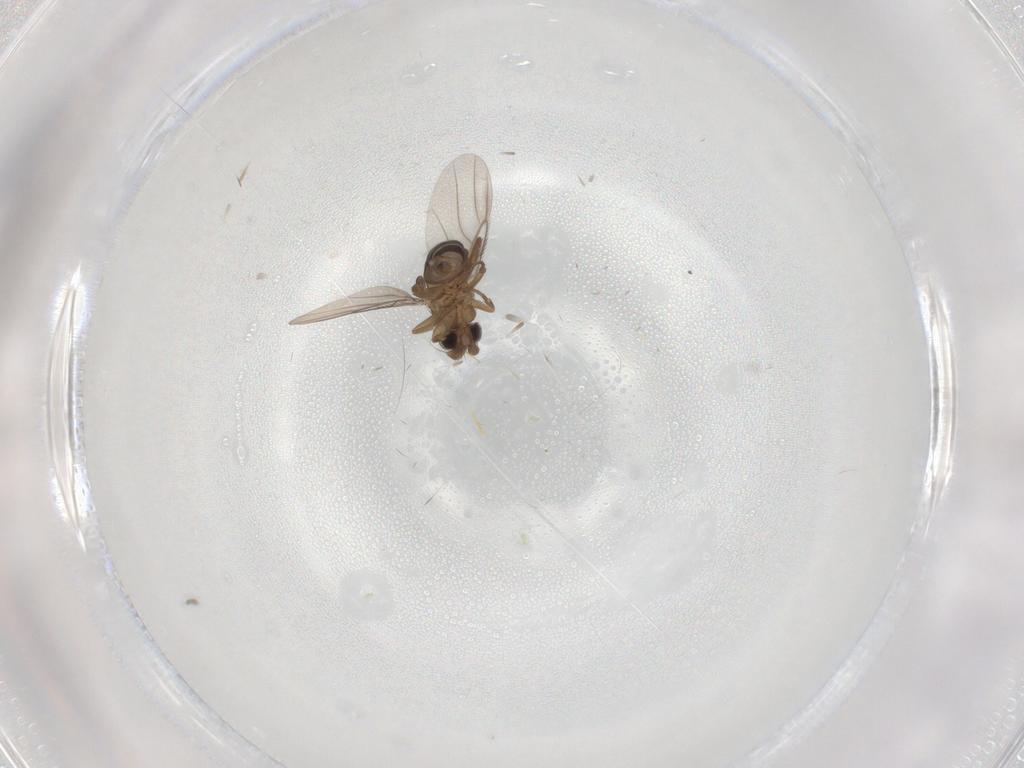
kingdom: Animalia
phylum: Arthropoda
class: Insecta
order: Diptera
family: Phoridae
